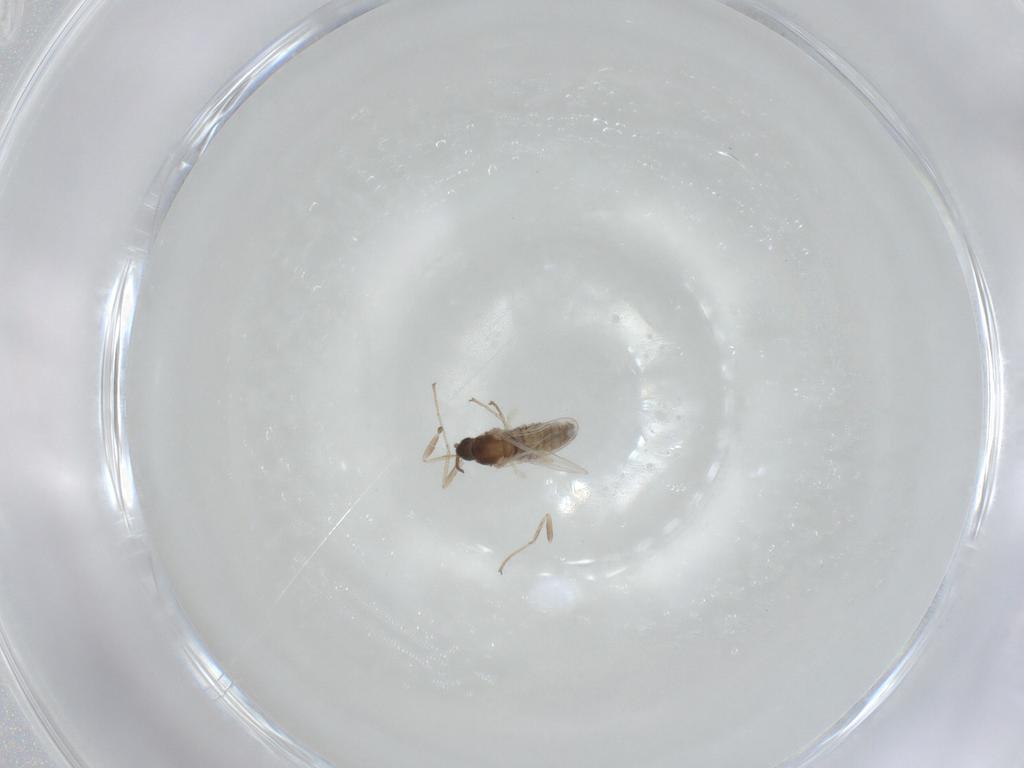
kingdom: Animalia
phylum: Arthropoda
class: Insecta
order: Diptera
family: Cecidomyiidae
